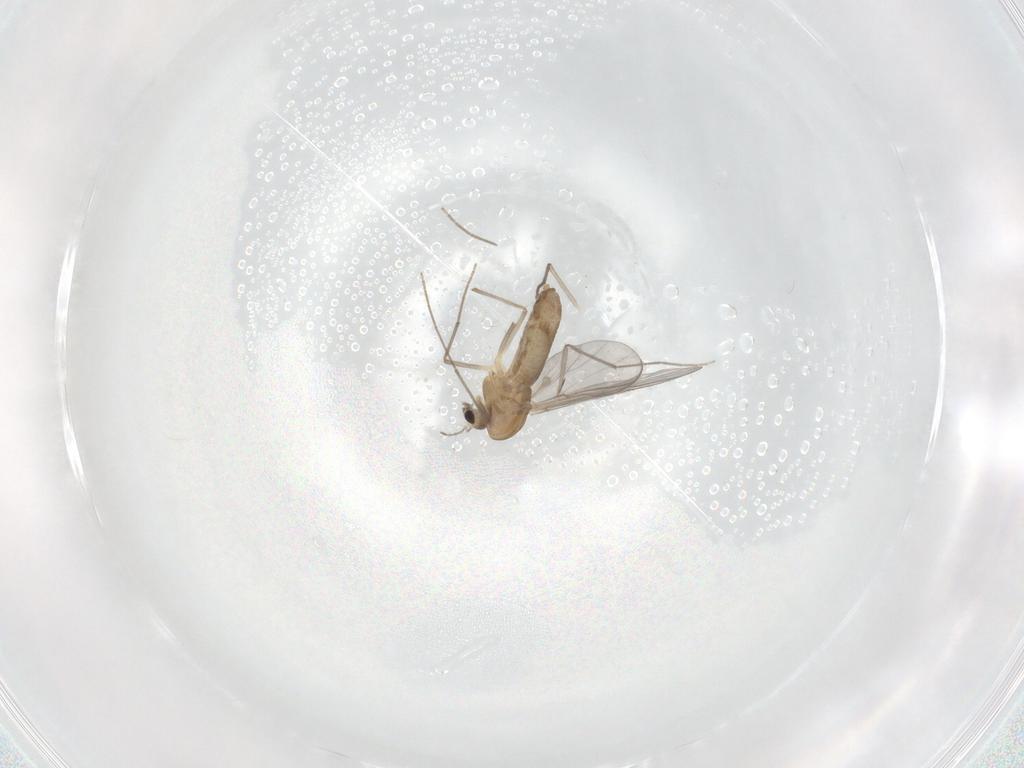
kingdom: Animalia
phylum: Arthropoda
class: Insecta
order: Diptera
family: Chironomidae
